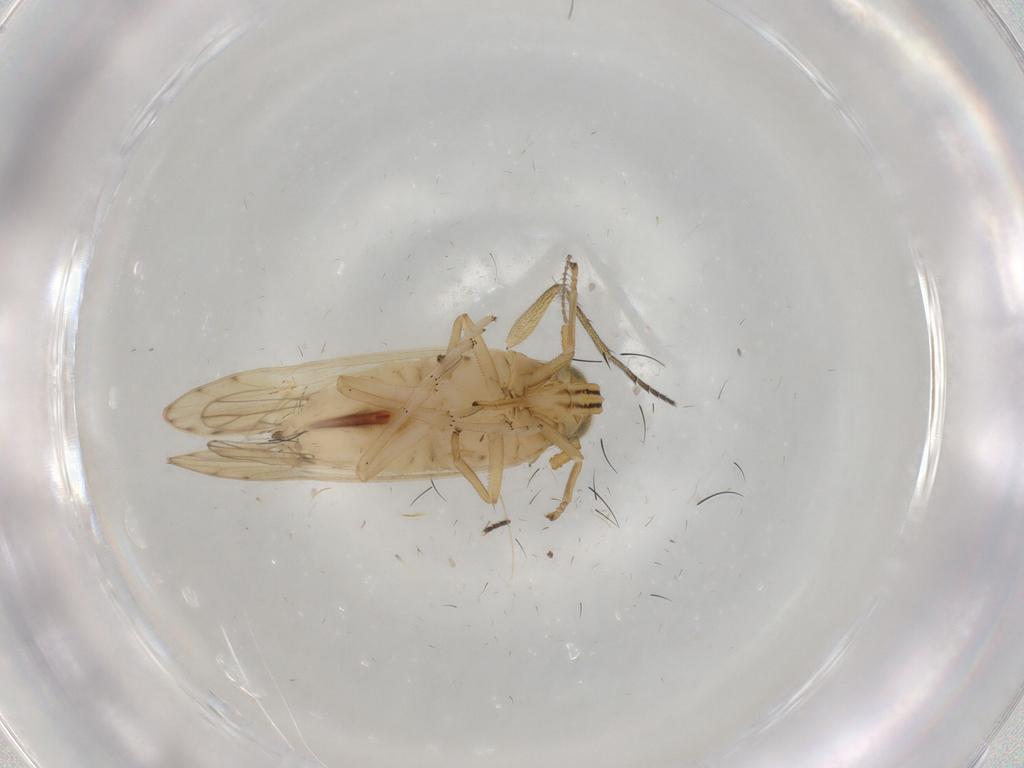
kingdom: Animalia
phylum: Arthropoda
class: Insecta
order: Hemiptera
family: Delphacidae
